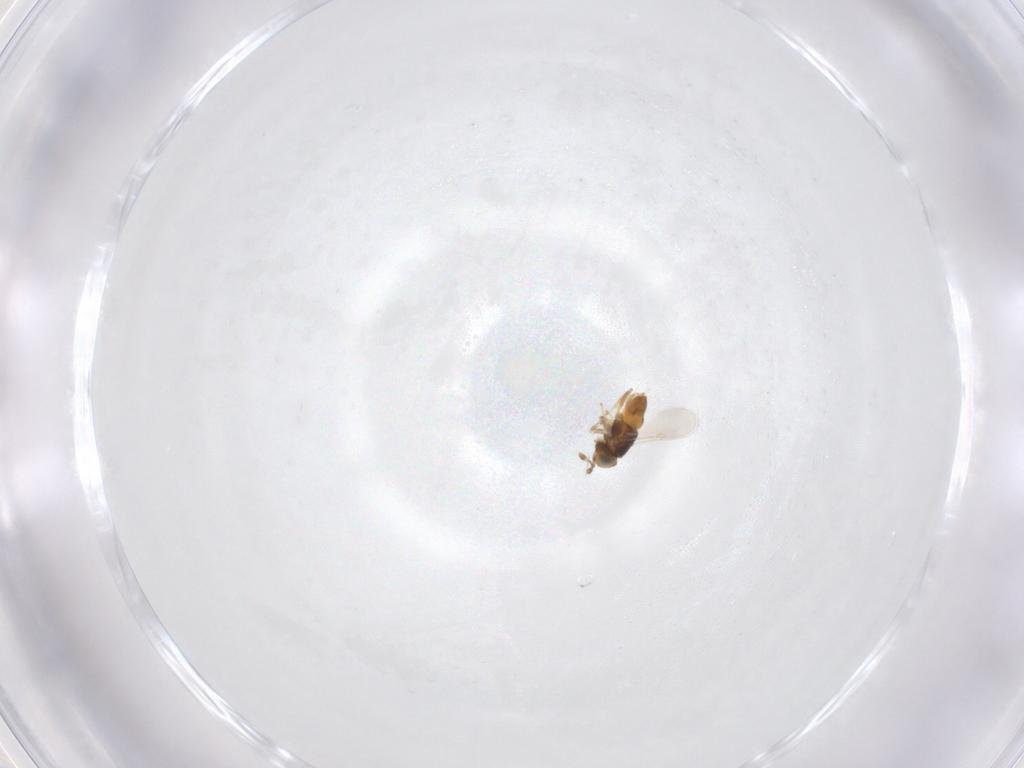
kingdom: Animalia
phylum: Arthropoda
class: Insecta
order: Hymenoptera
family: Eurytomidae
